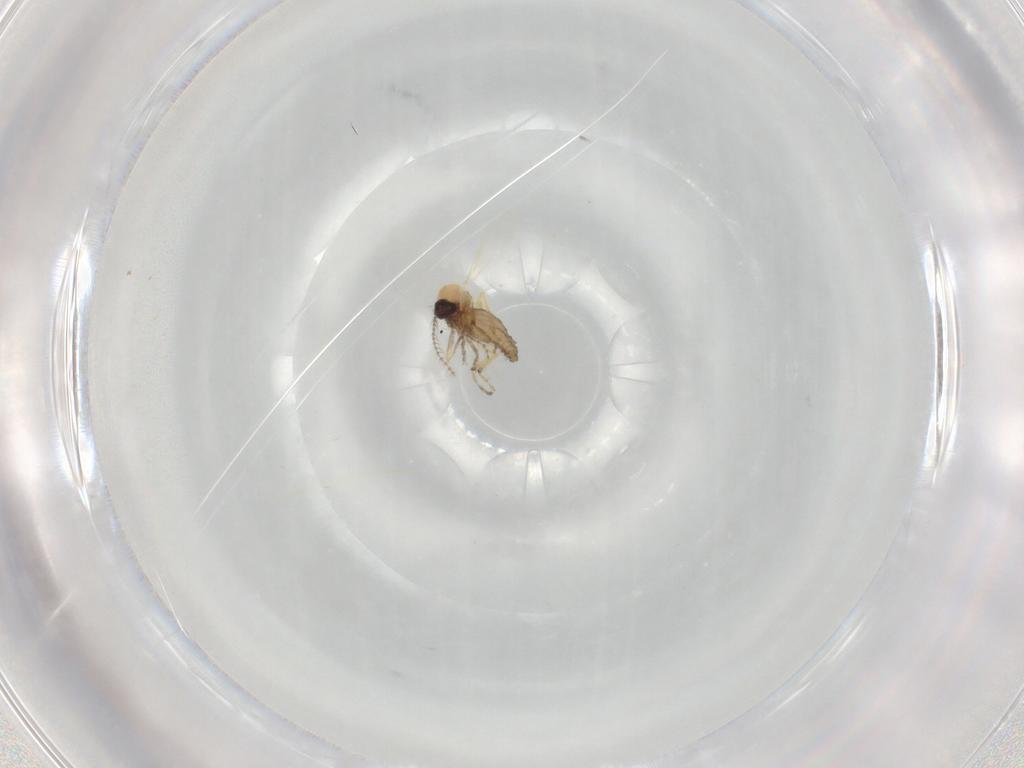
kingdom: Animalia
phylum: Arthropoda
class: Insecta
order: Diptera
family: Ceratopogonidae
